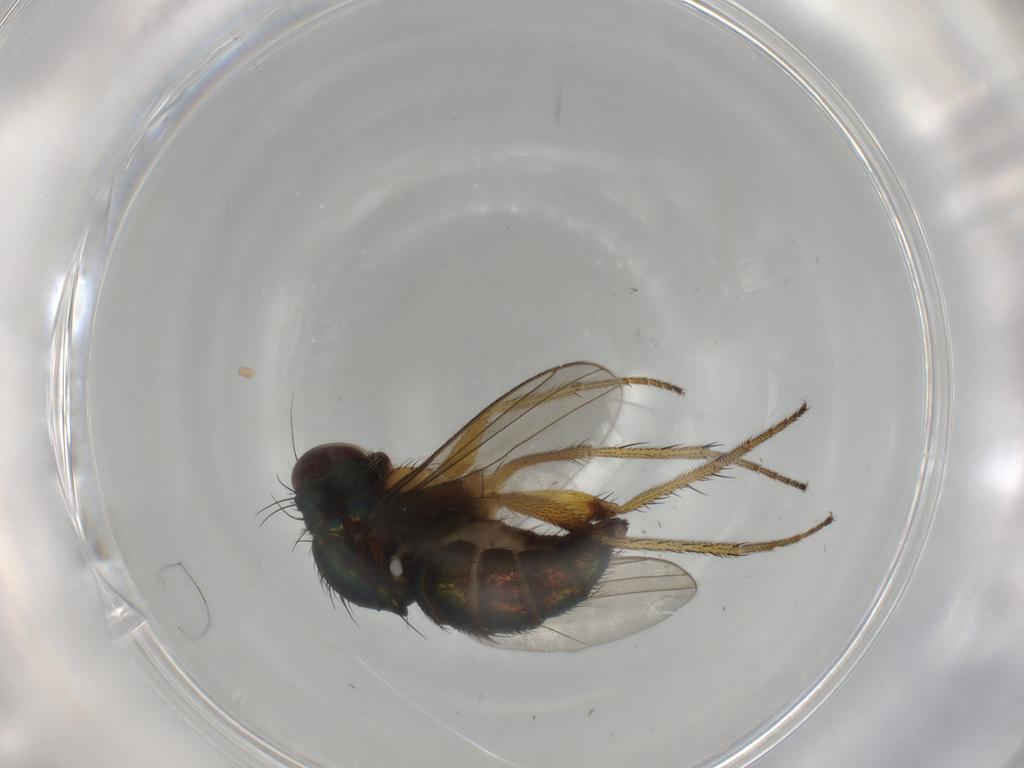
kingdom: Animalia
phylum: Arthropoda
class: Insecta
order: Diptera
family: Dolichopodidae
